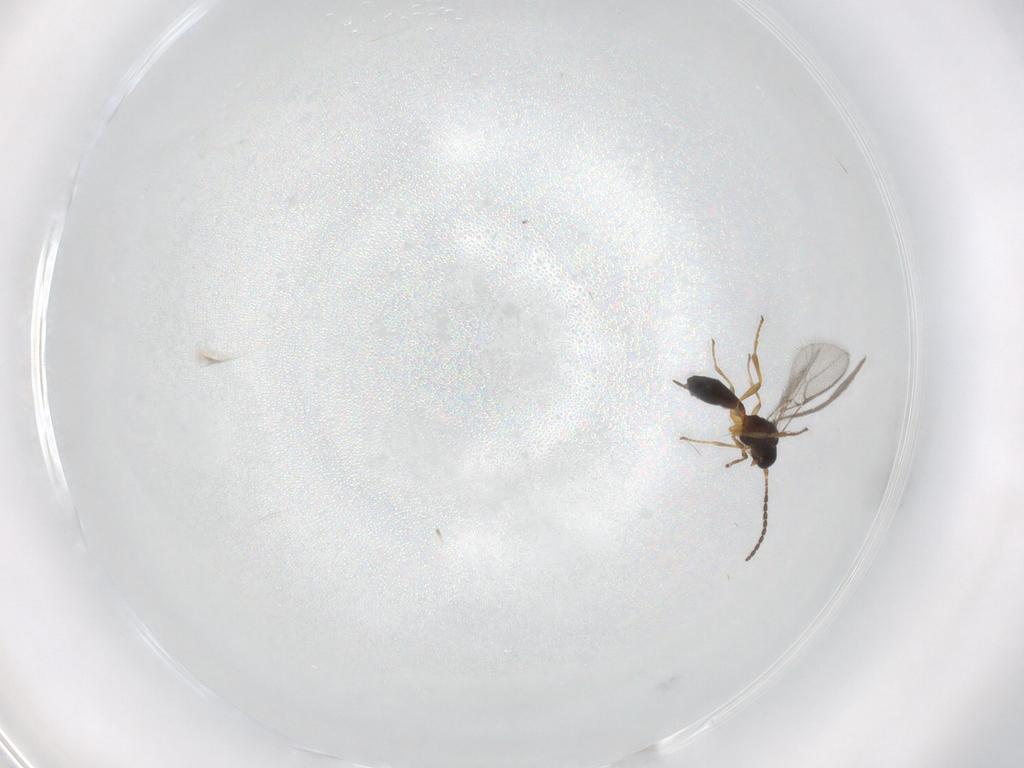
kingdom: Animalia
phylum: Arthropoda
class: Insecta
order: Hymenoptera
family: Braconidae
